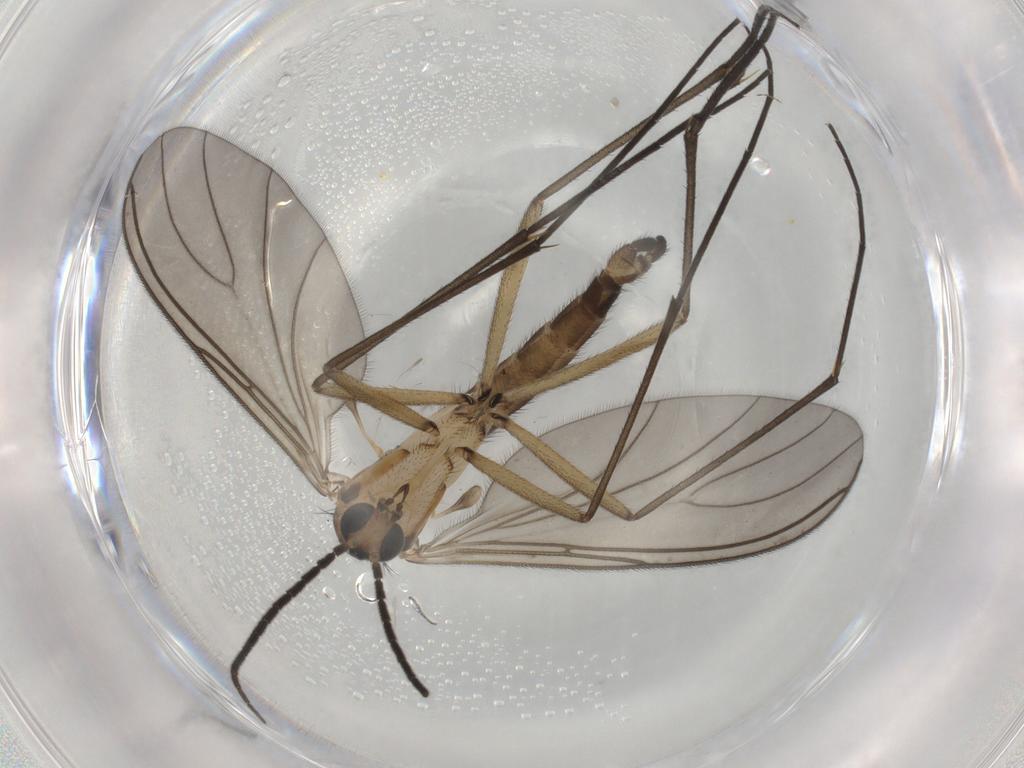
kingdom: Animalia
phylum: Arthropoda
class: Insecta
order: Diptera
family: Sciaridae
